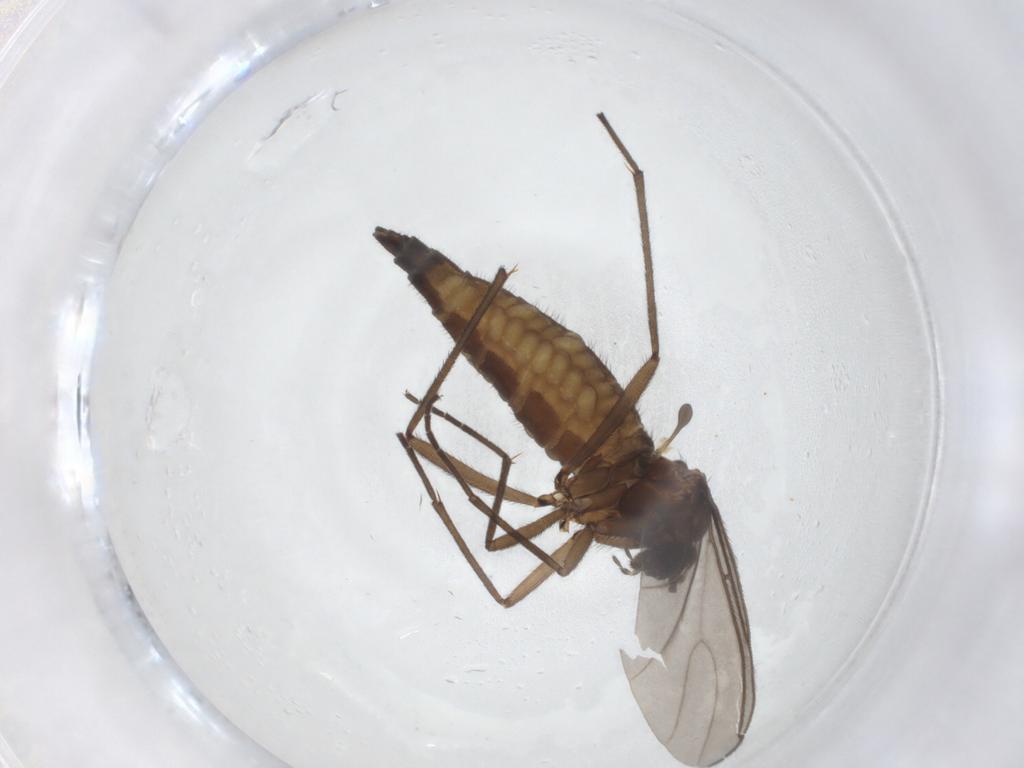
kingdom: Animalia
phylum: Arthropoda
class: Insecta
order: Diptera
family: Sciaridae
